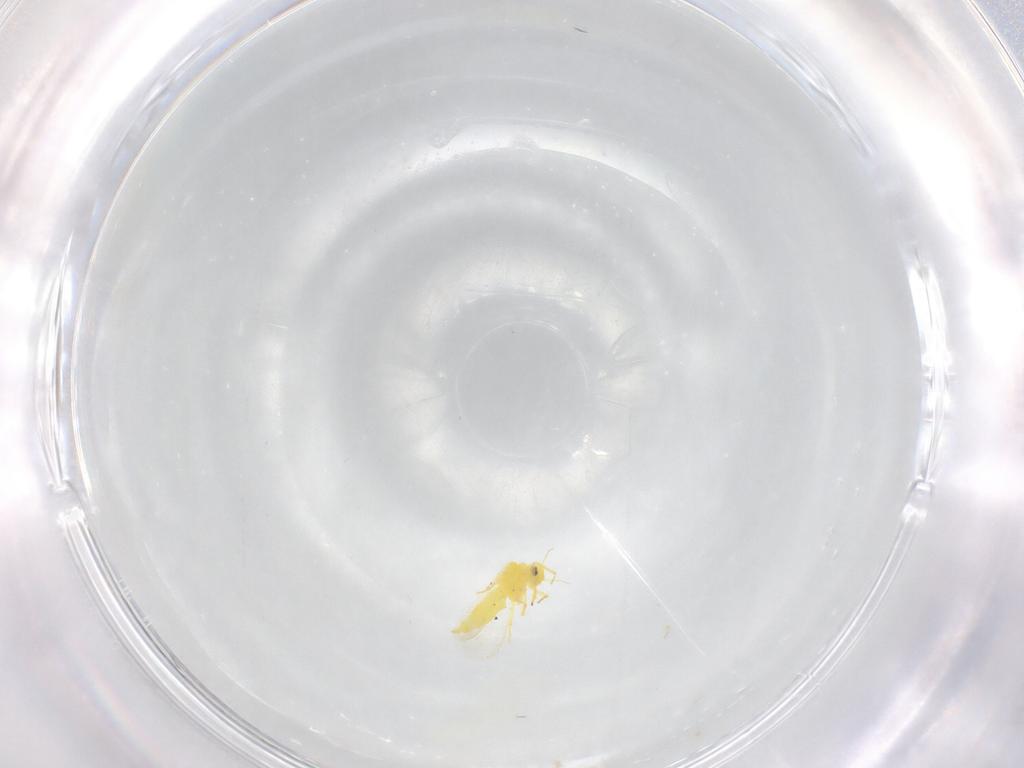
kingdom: Animalia
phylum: Arthropoda
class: Insecta
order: Hemiptera
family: Aleyrodidae
